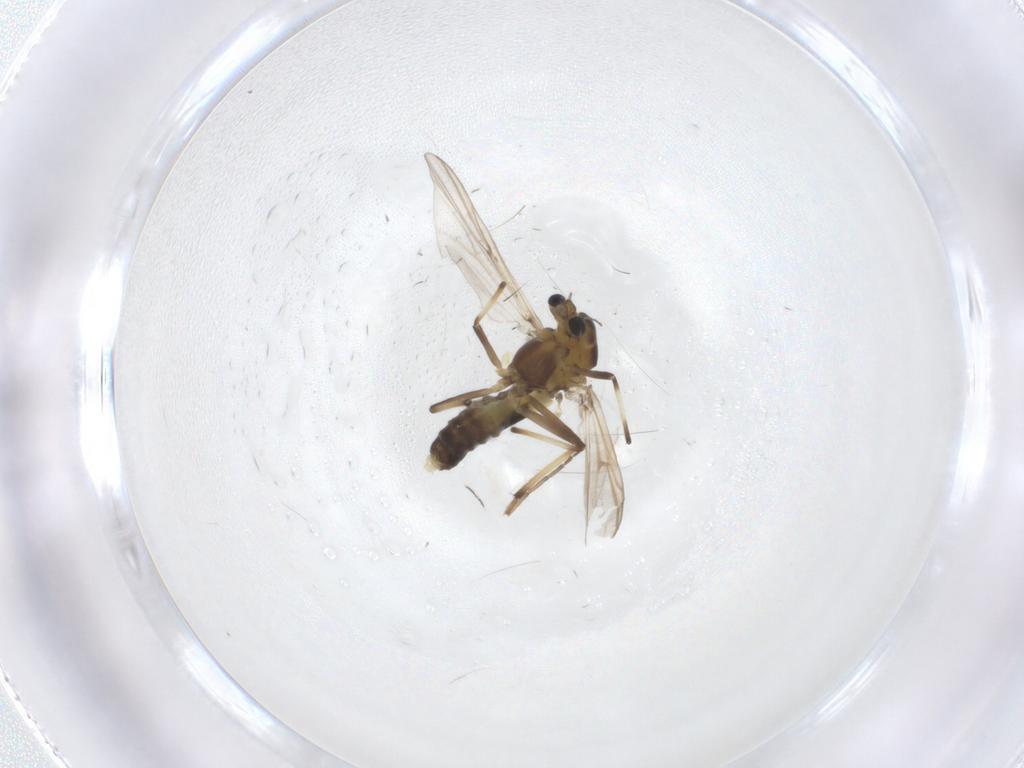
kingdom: Animalia
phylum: Arthropoda
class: Insecta
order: Diptera
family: Chironomidae
